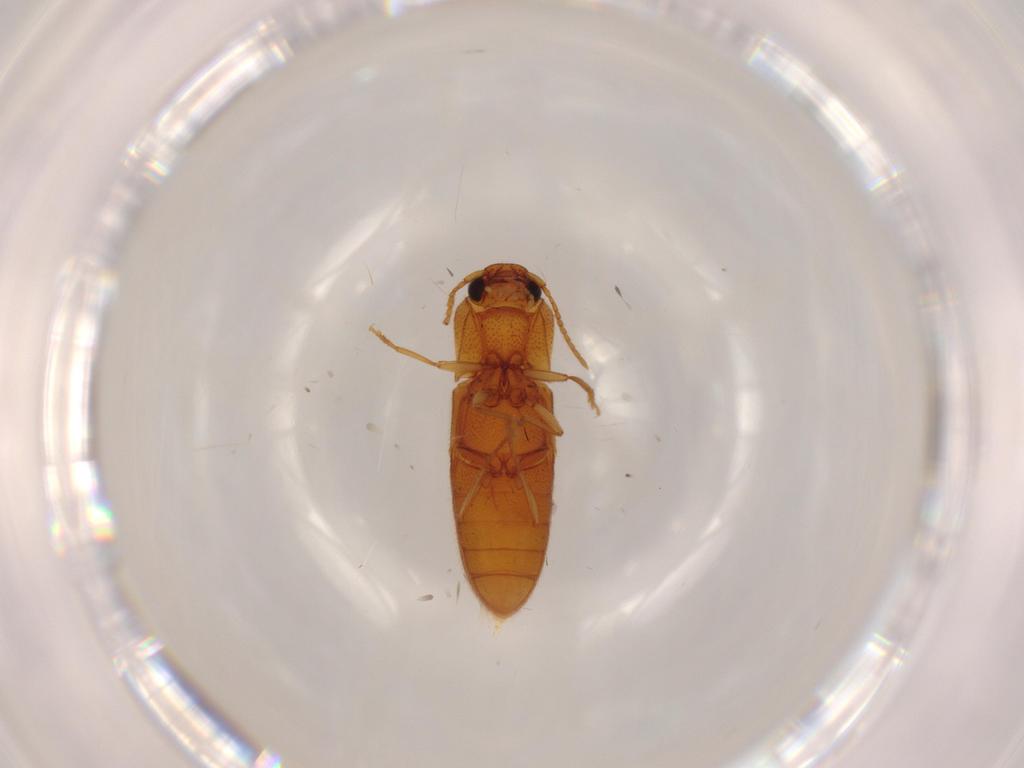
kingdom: Animalia
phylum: Arthropoda
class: Insecta
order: Coleoptera
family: Elateridae
